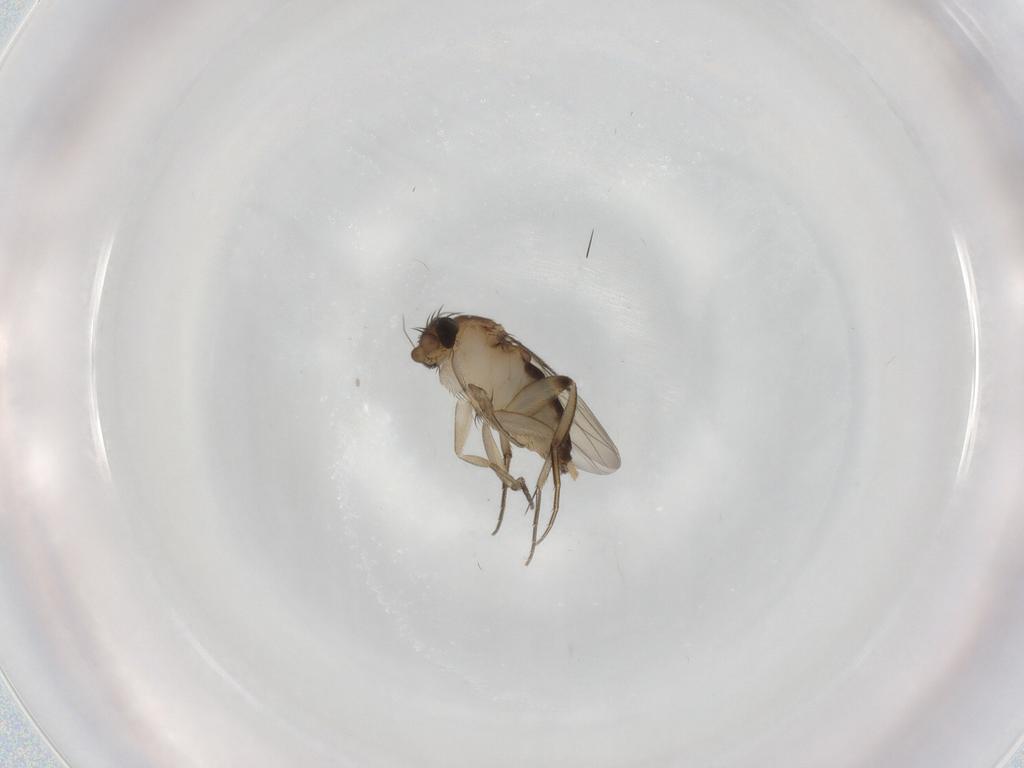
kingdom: Animalia
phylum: Arthropoda
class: Insecta
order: Diptera
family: Phoridae
